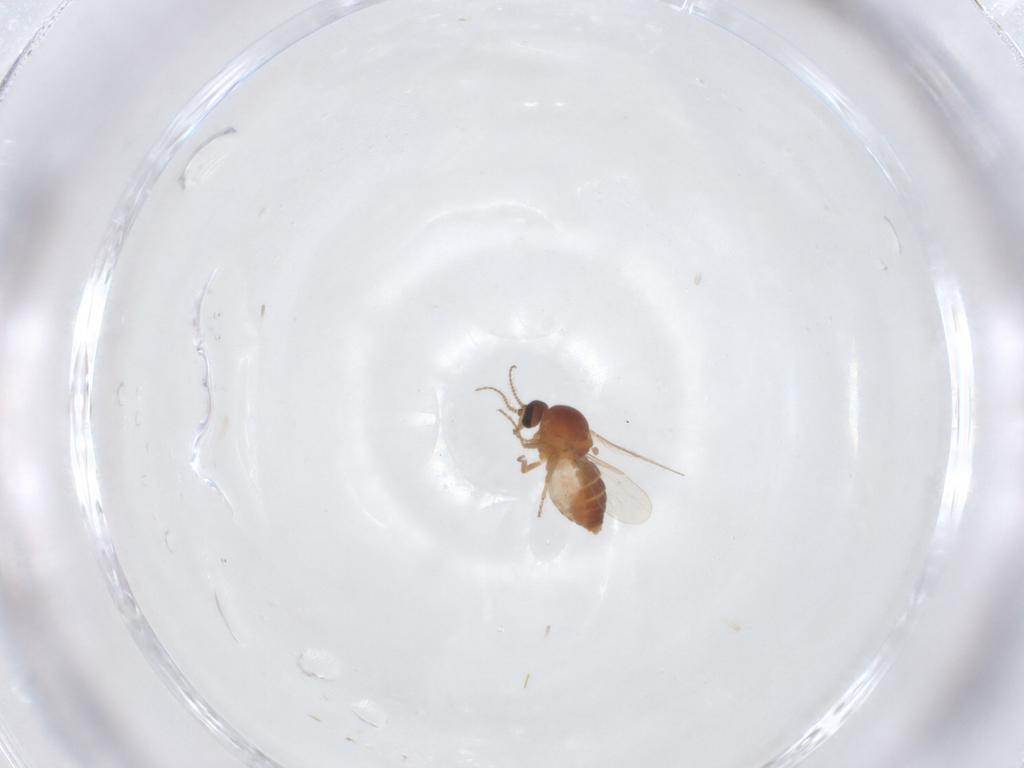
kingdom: Animalia
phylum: Arthropoda
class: Insecta
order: Diptera
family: Ceratopogonidae
